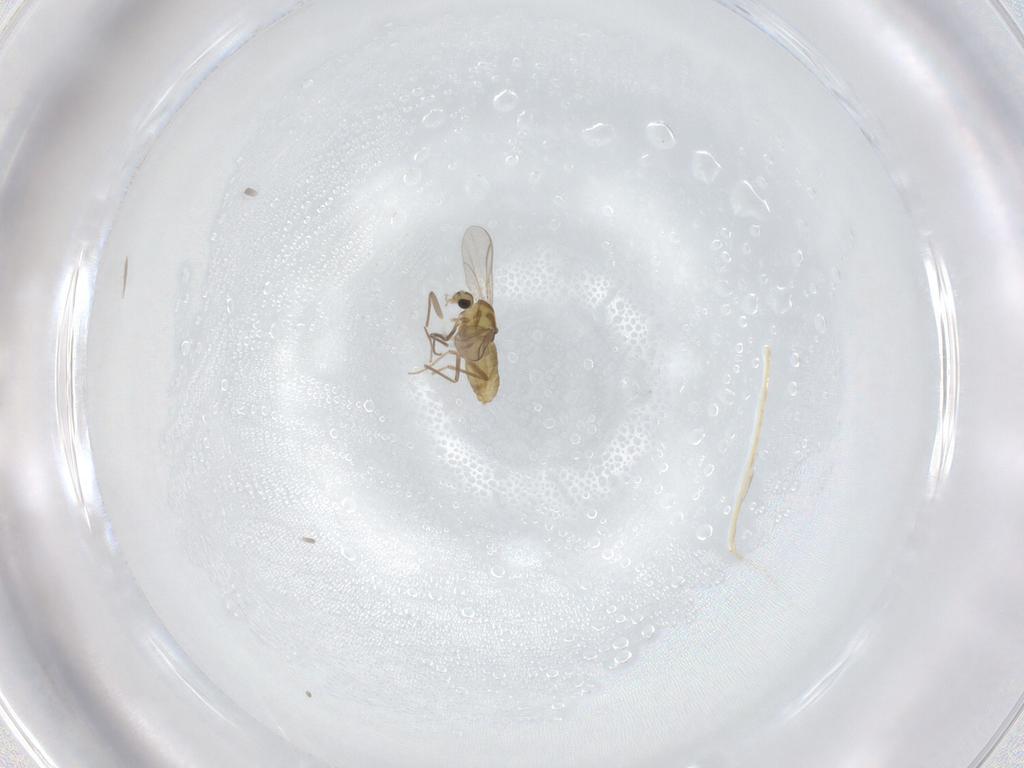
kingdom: Animalia
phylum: Arthropoda
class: Insecta
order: Diptera
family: Chironomidae
